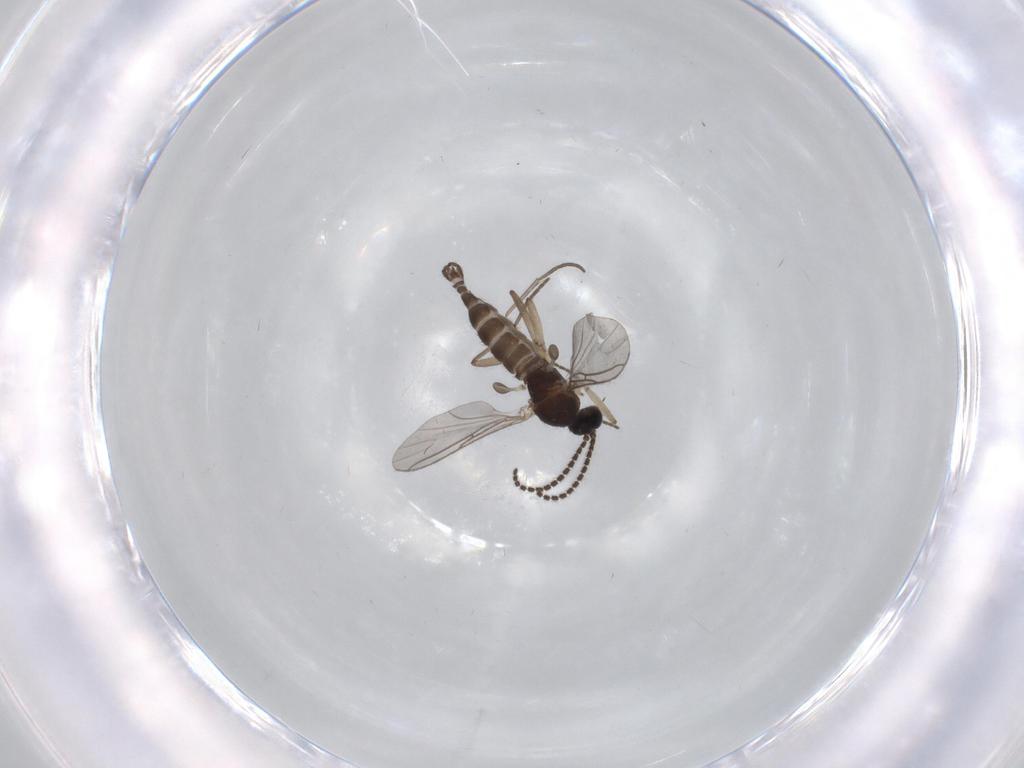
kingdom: Animalia
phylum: Arthropoda
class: Insecta
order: Diptera
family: Sciaridae
